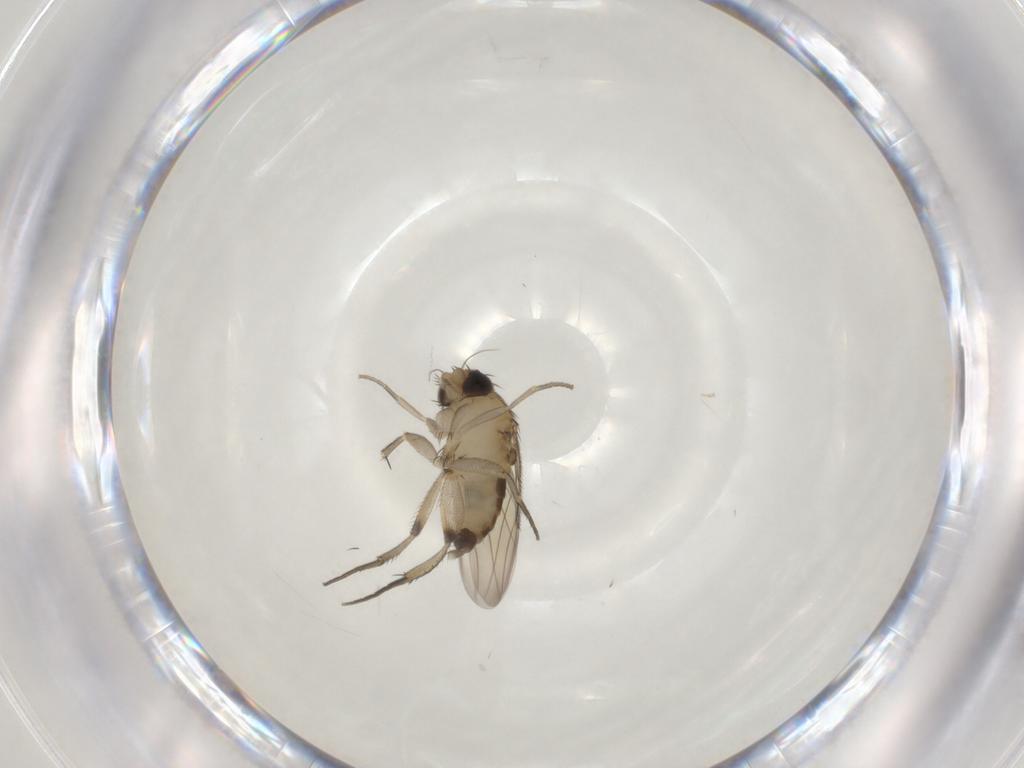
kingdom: Animalia
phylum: Arthropoda
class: Insecta
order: Diptera
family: Phoridae
